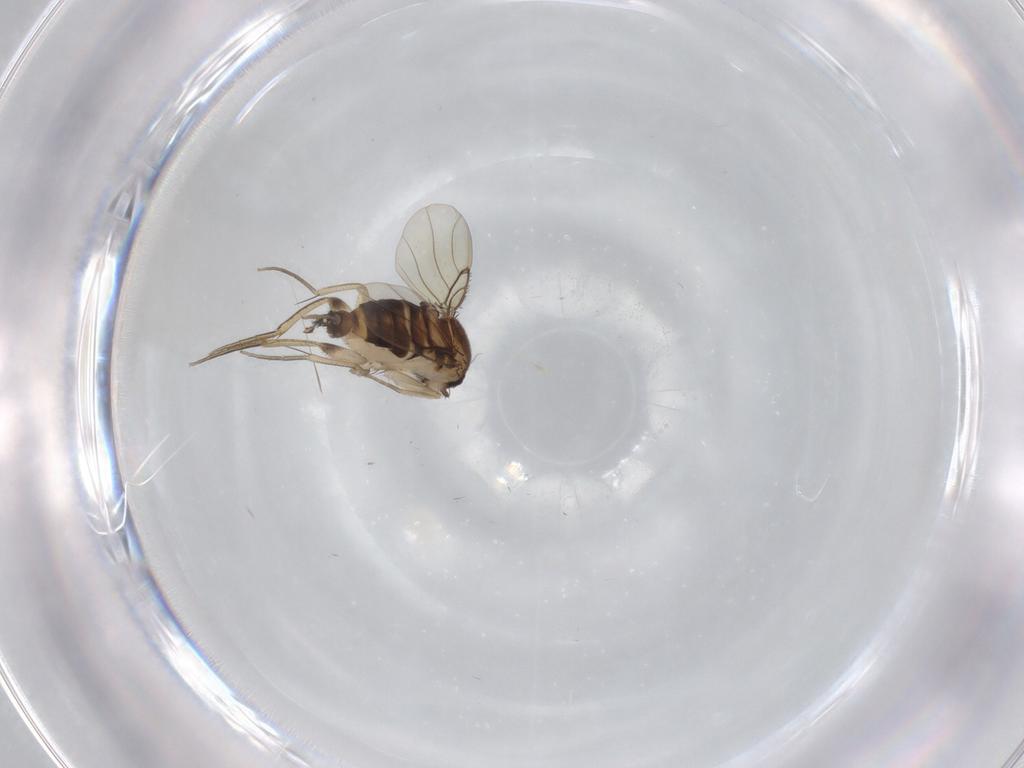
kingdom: Animalia
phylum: Arthropoda
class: Insecta
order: Diptera
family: Phoridae
